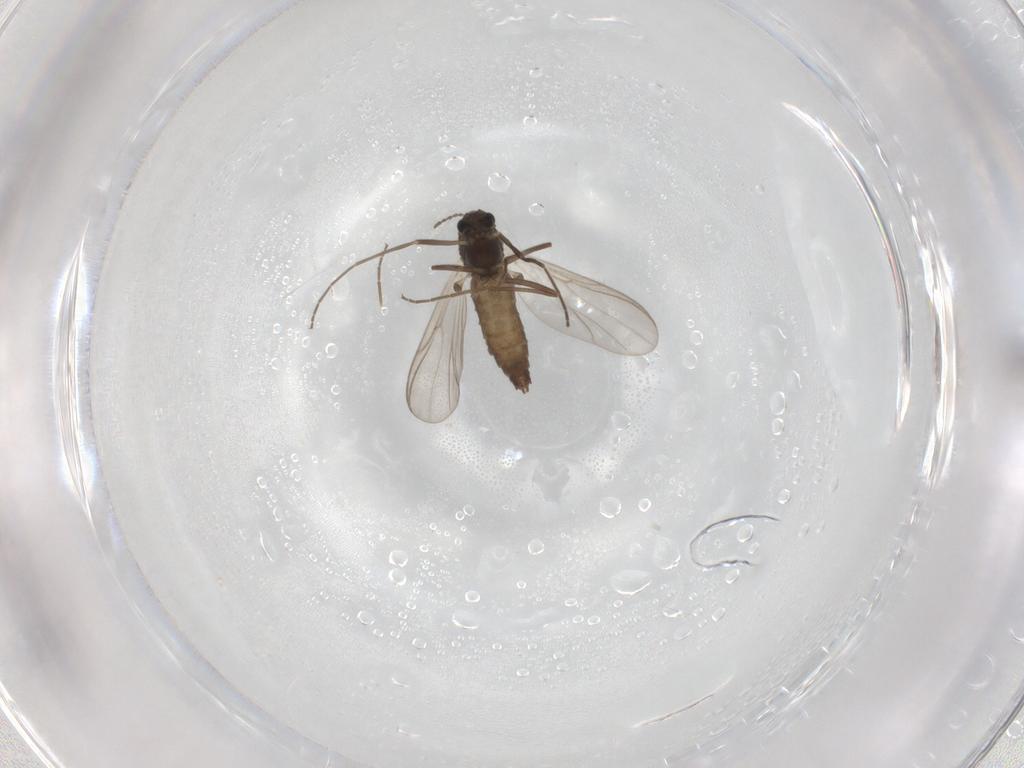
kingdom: Animalia
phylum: Arthropoda
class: Insecta
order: Diptera
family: Chironomidae
